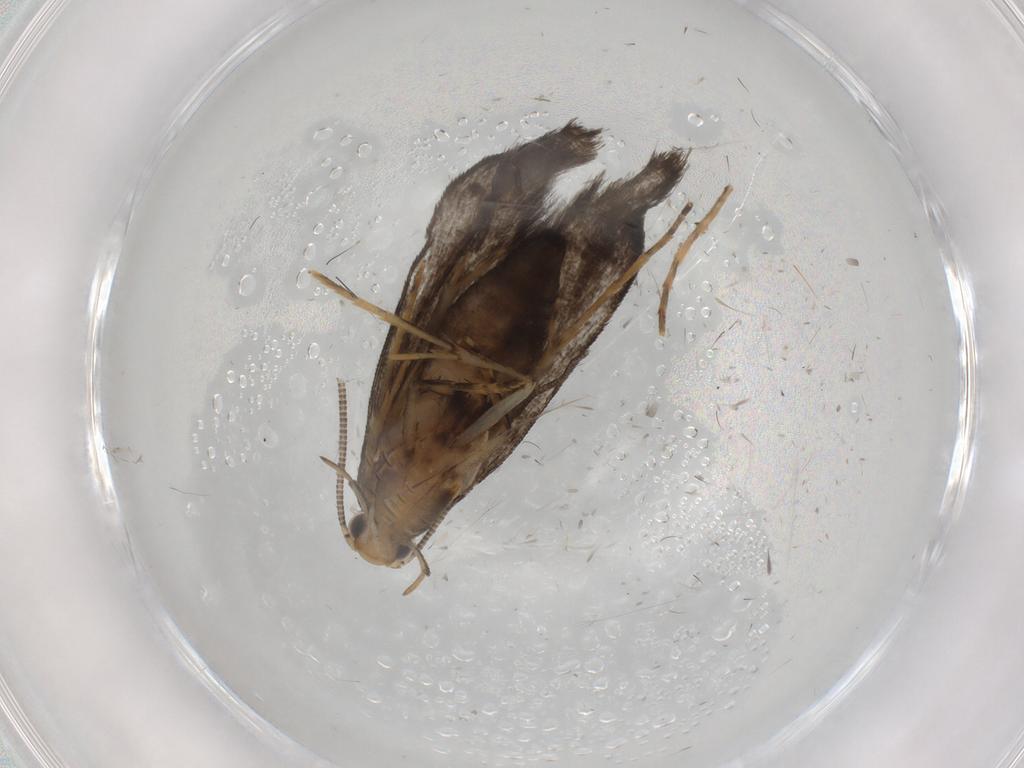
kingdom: Animalia
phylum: Arthropoda
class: Insecta
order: Lepidoptera
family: Tineidae
